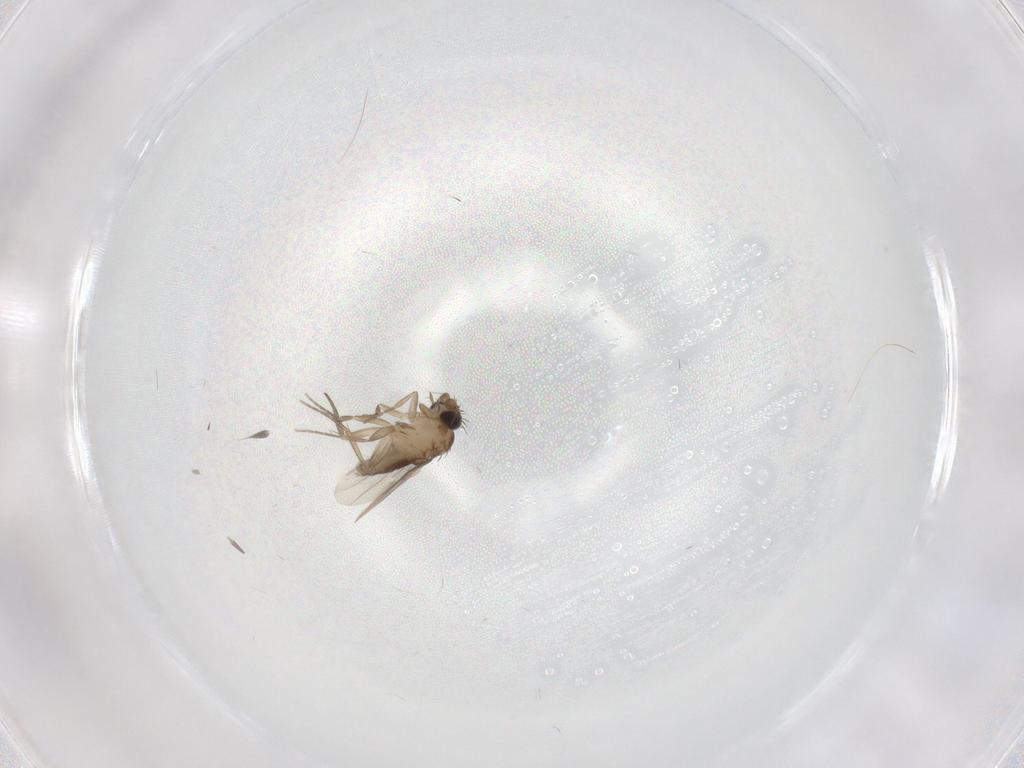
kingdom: Animalia
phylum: Arthropoda
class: Insecta
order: Diptera
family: Phoridae
